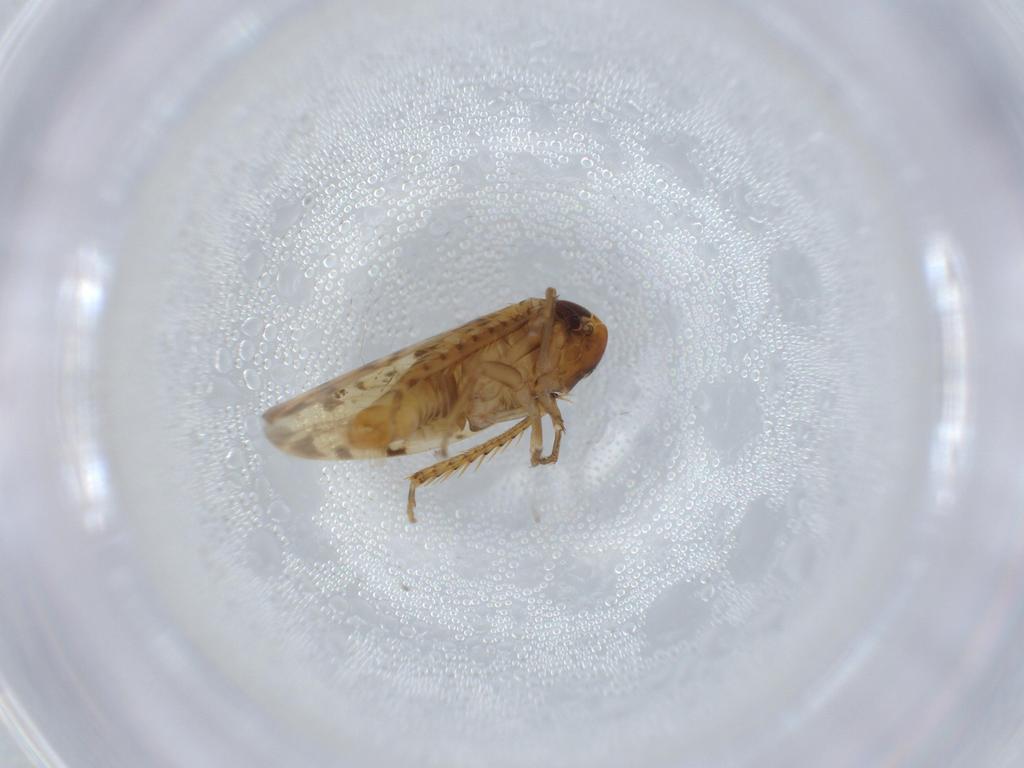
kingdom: Animalia
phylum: Arthropoda
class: Insecta
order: Hemiptera
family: Cicadellidae
